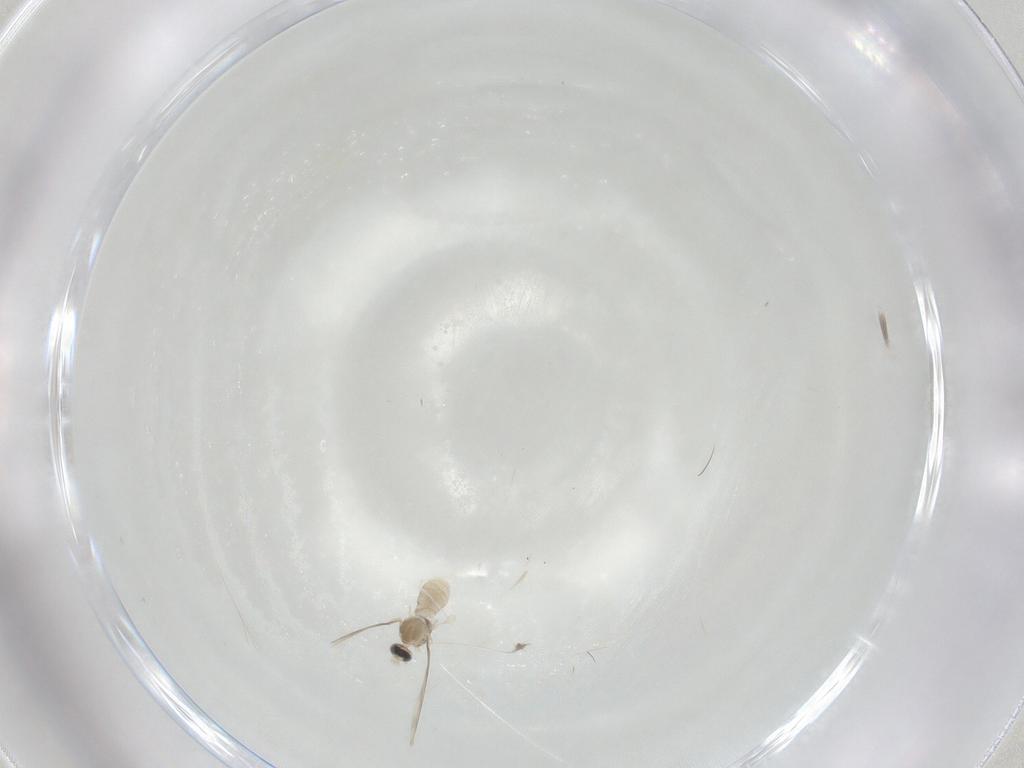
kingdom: Animalia
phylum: Arthropoda
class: Insecta
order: Diptera
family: Cecidomyiidae
